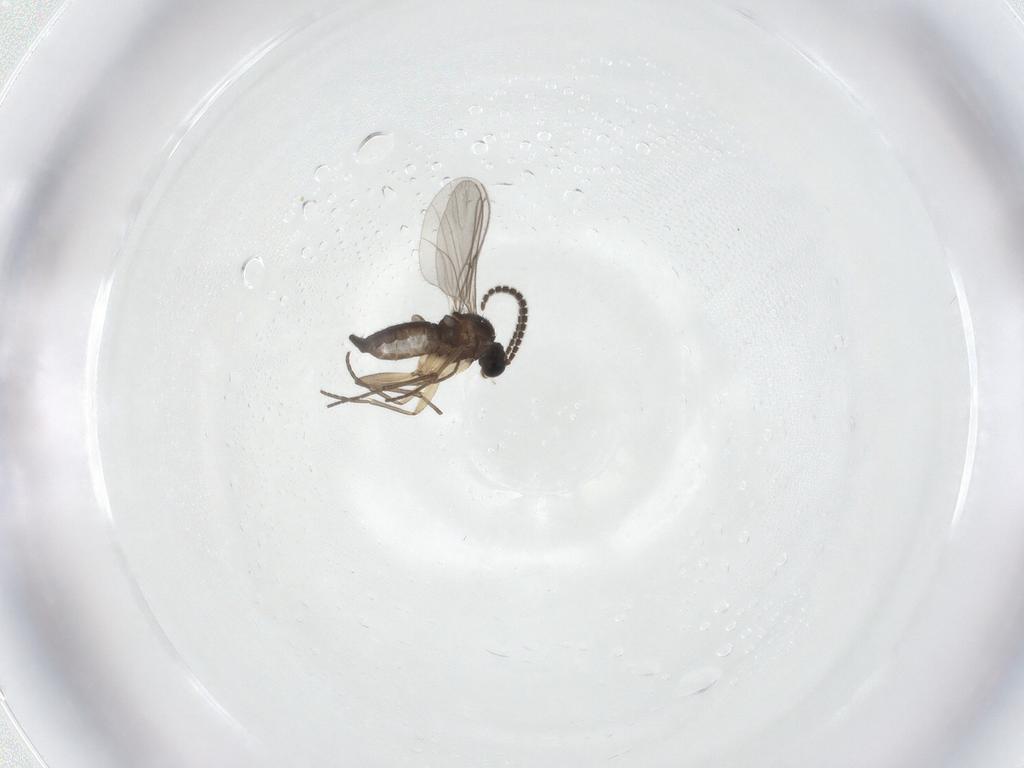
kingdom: Animalia
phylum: Arthropoda
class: Insecta
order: Diptera
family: Sciaridae
